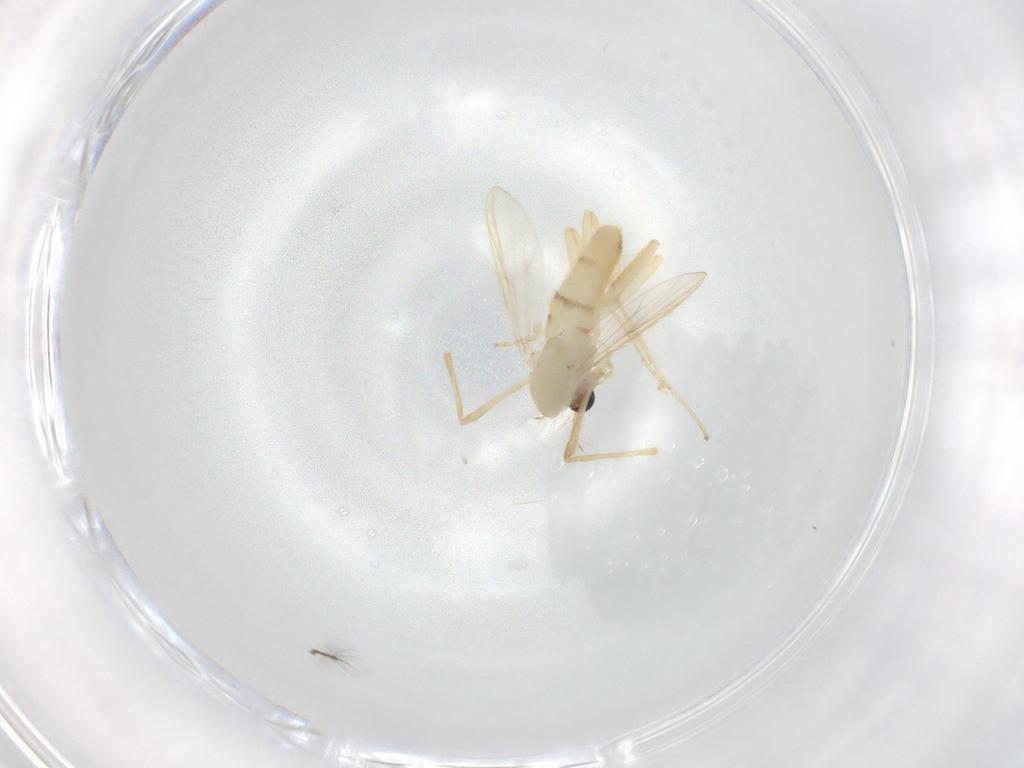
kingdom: Animalia
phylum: Arthropoda
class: Insecta
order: Diptera
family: Chironomidae
